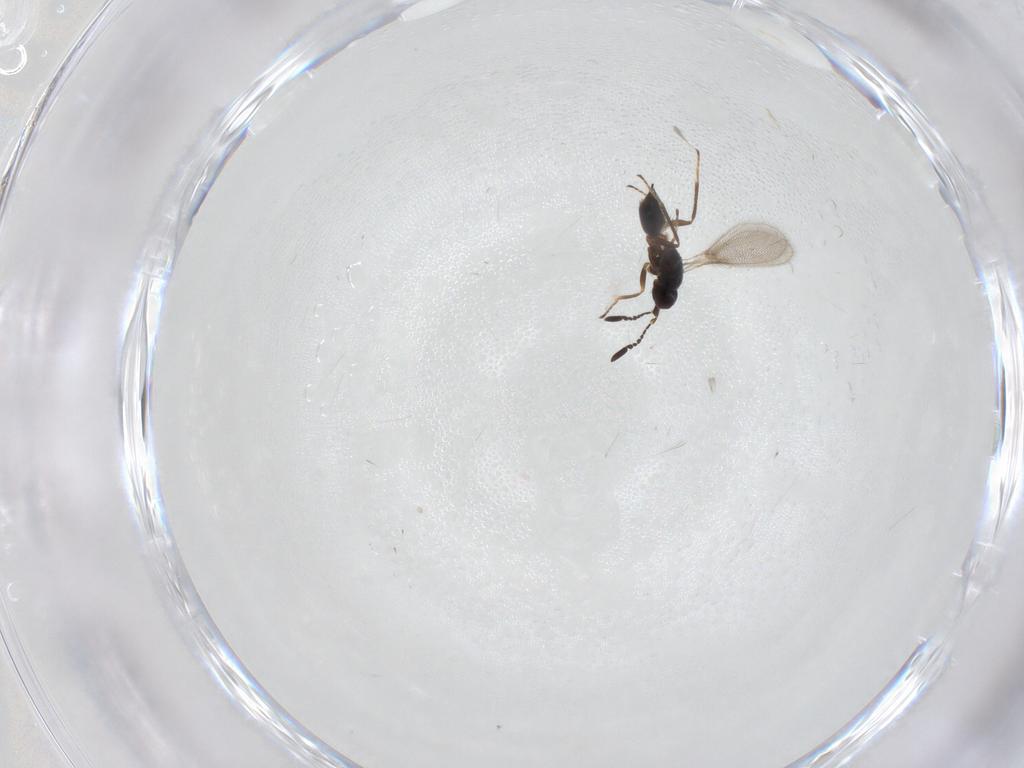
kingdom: Animalia
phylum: Arthropoda
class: Insecta
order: Hymenoptera
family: Mymaridae
